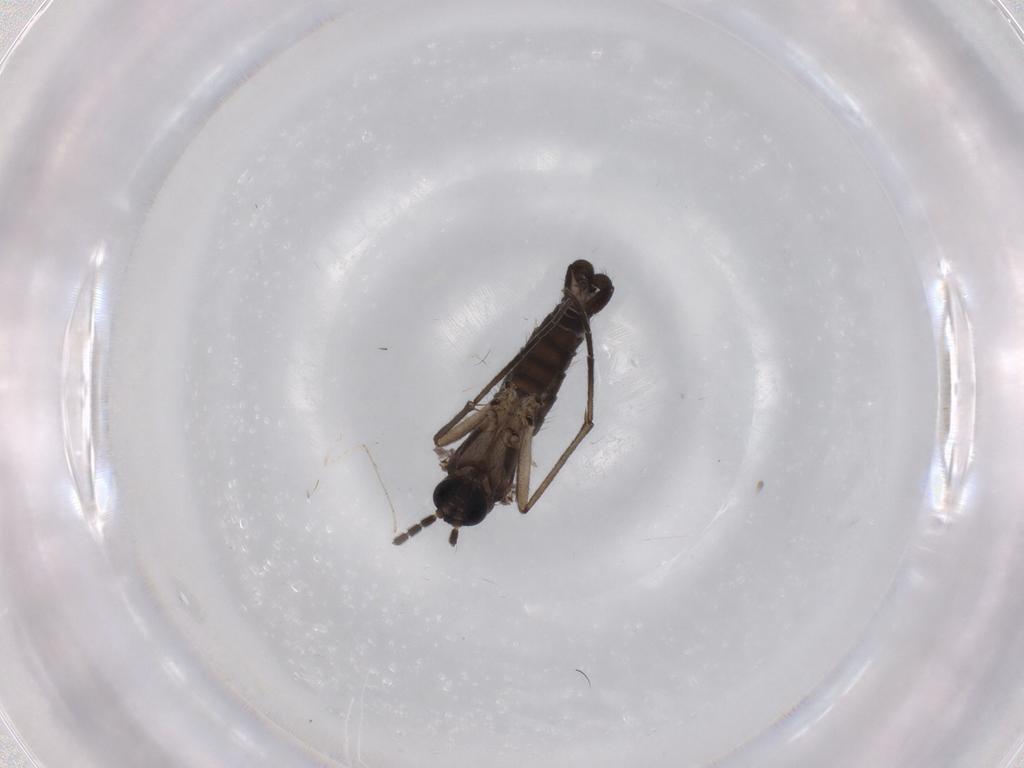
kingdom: Animalia
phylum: Arthropoda
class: Insecta
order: Diptera
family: Sciaridae
